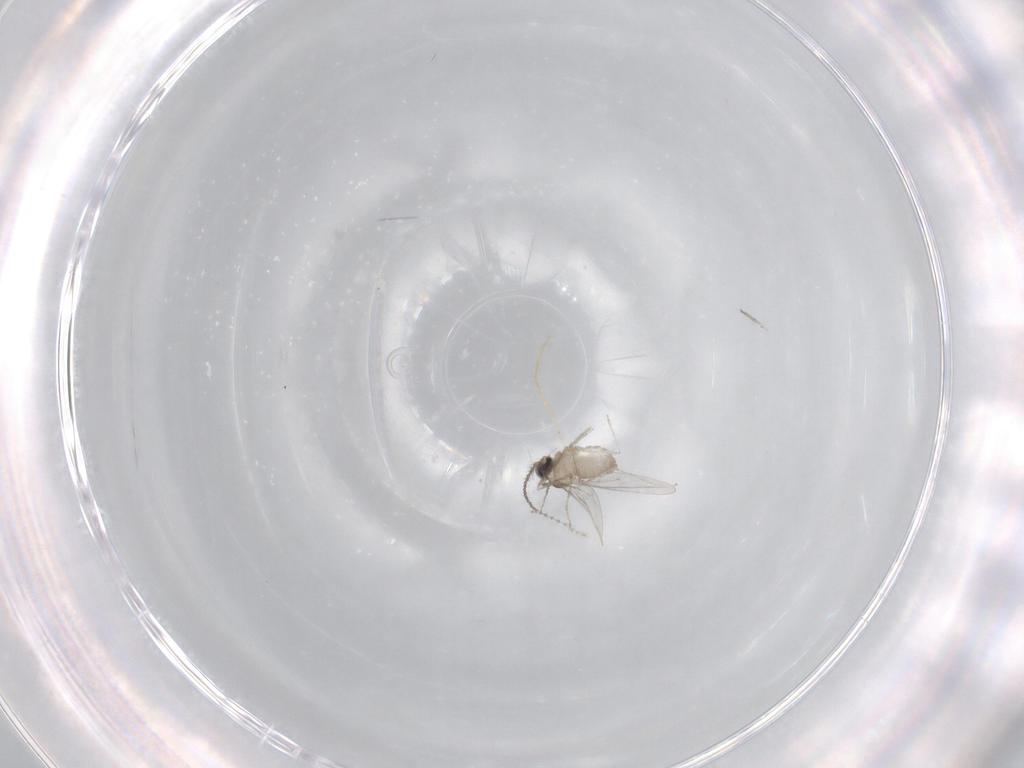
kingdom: Animalia
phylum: Arthropoda
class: Insecta
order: Diptera
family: Cecidomyiidae
